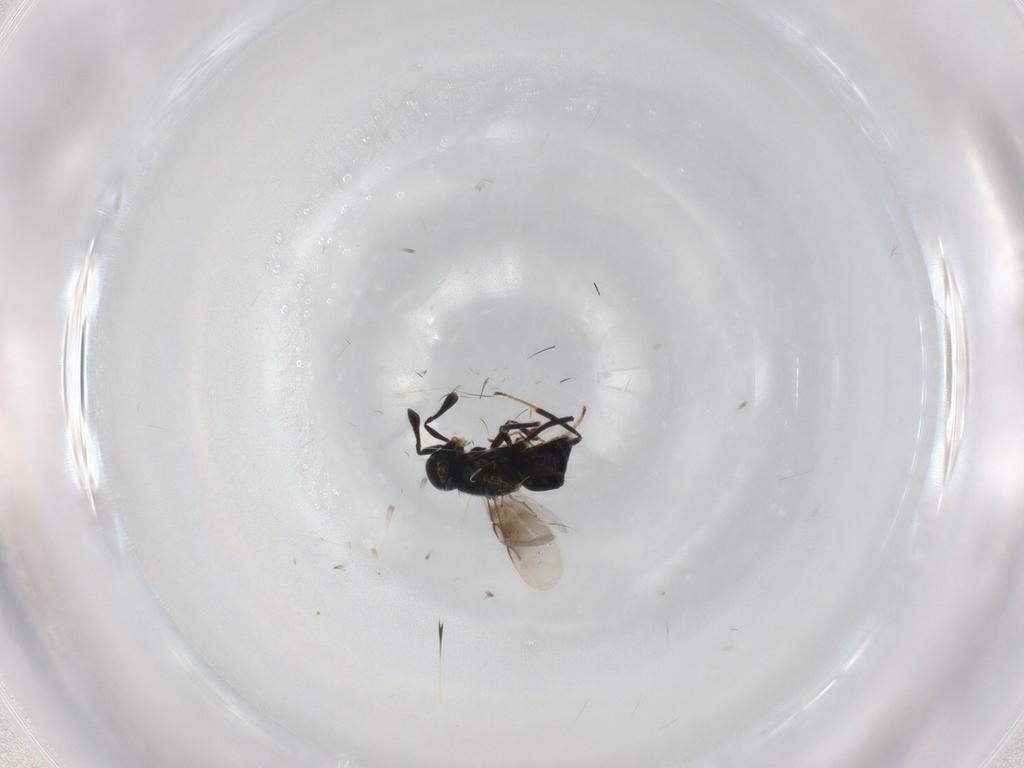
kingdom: Animalia
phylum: Arthropoda
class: Insecta
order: Hymenoptera
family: Encyrtidae
